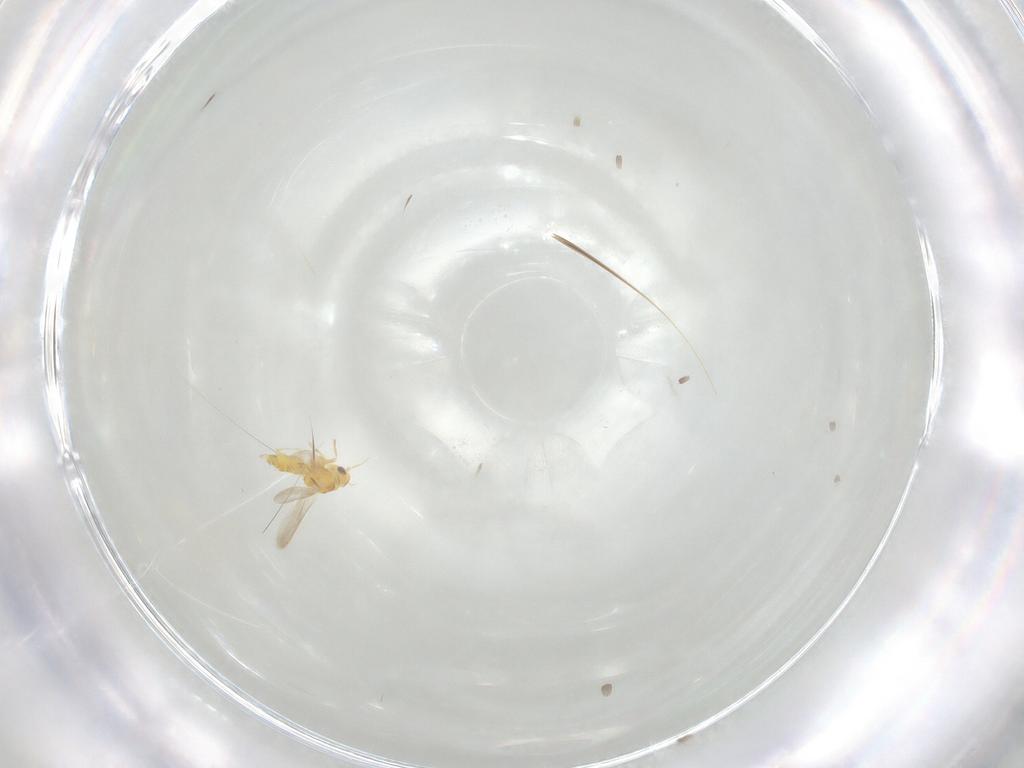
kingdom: Animalia
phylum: Arthropoda
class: Insecta
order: Hemiptera
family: Aleyrodidae
